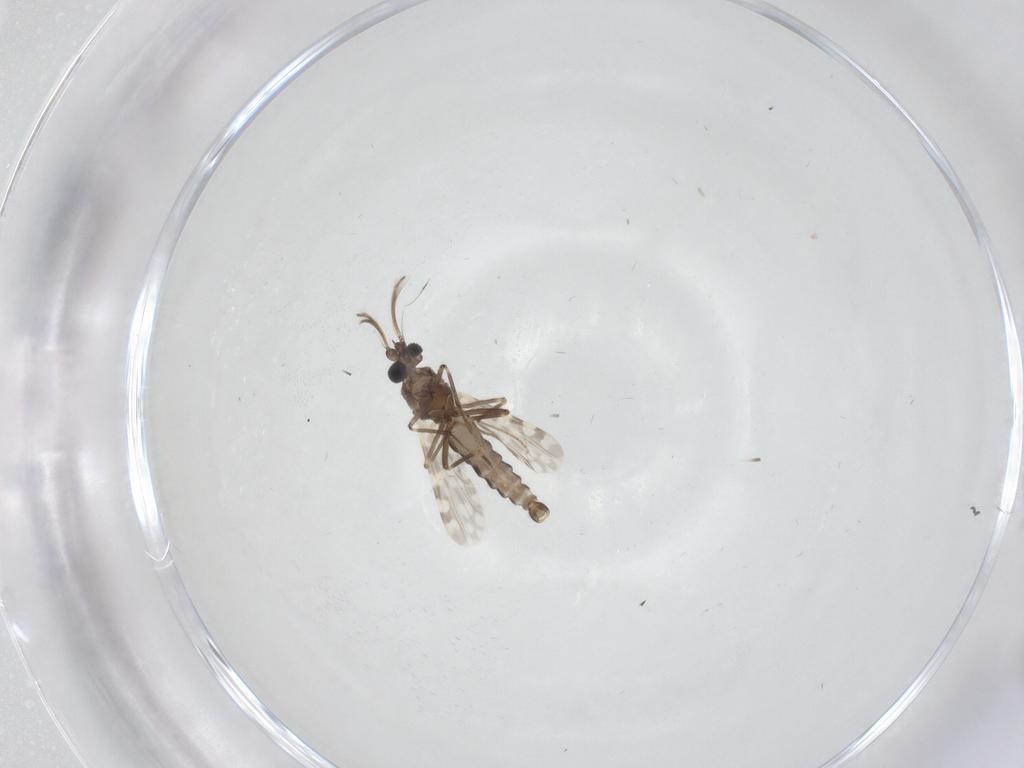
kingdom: Animalia
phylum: Arthropoda
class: Insecta
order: Diptera
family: Ceratopogonidae
